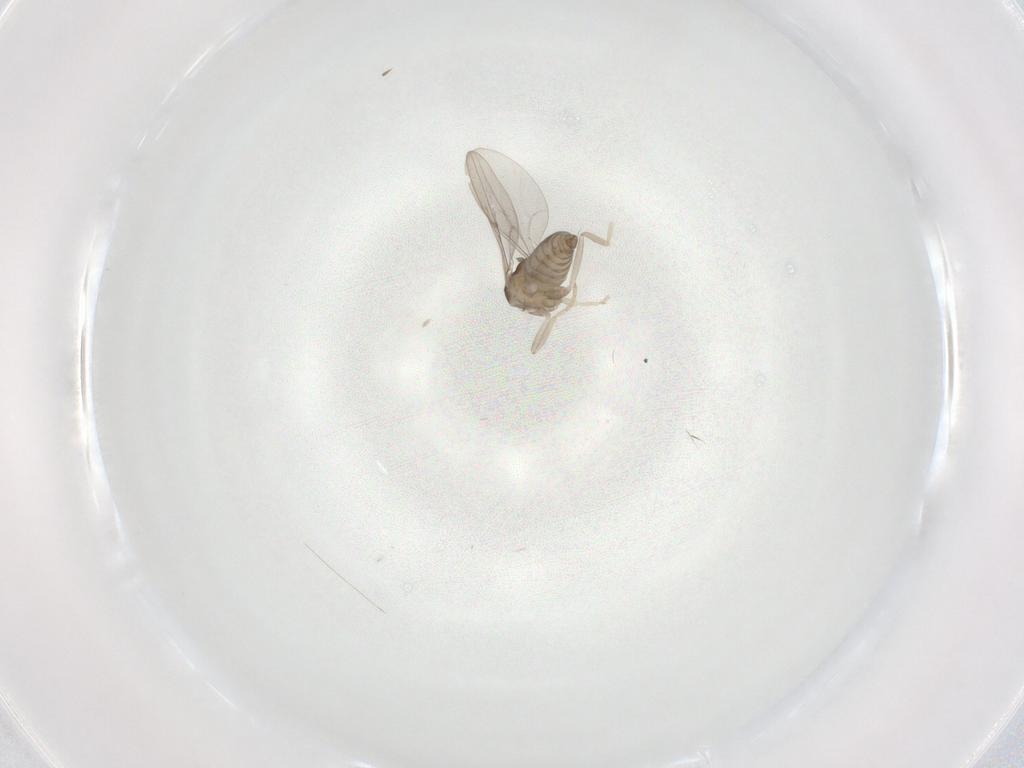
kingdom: Animalia
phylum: Arthropoda
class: Insecta
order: Diptera
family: Cecidomyiidae
